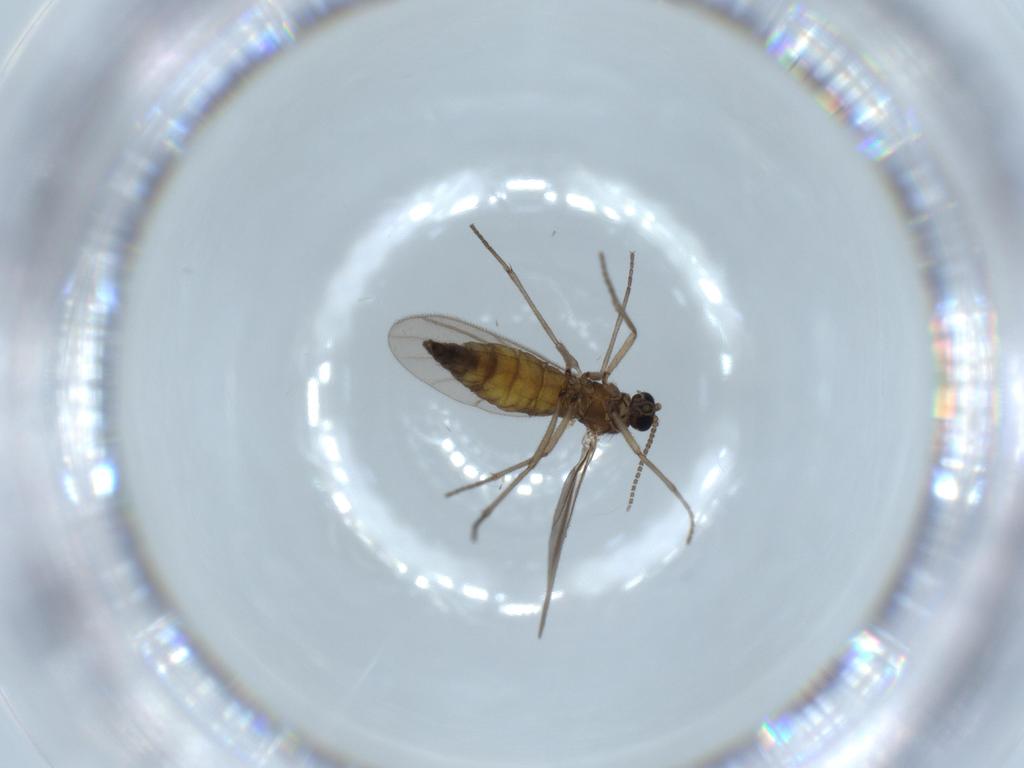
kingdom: Animalia
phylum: Arthropoda
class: Insecta
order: Diptera
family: Sciaridae
